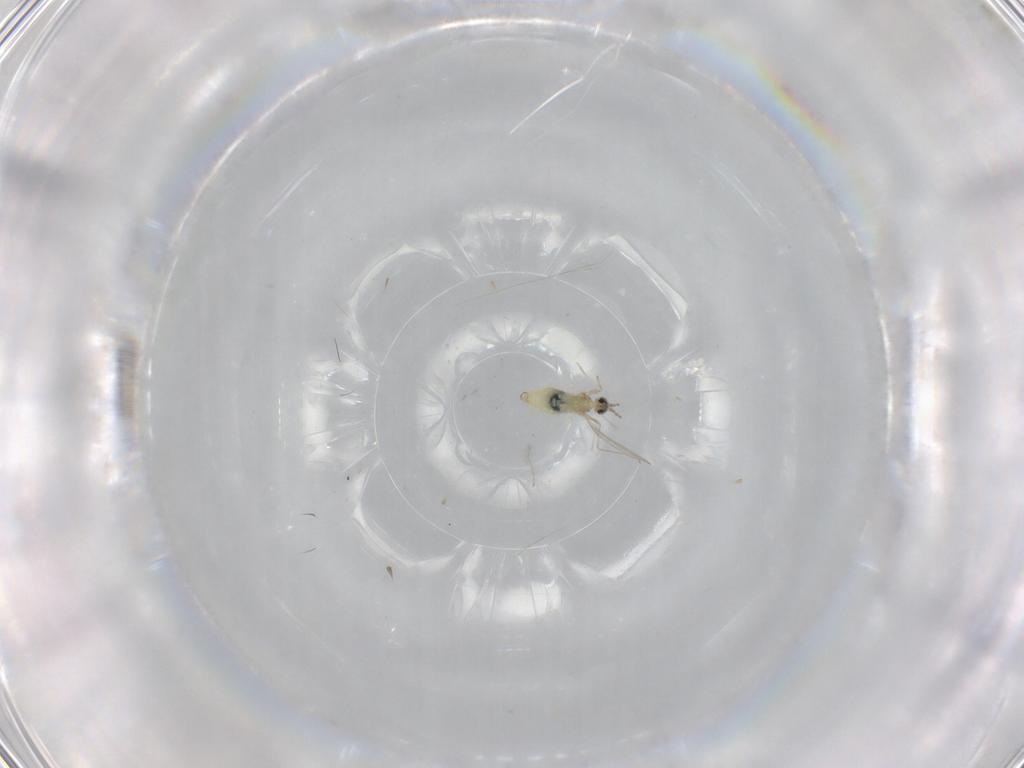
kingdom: Animalia
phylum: Arthropoda
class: Insecta
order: Diptera
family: Cecidomyiidae
